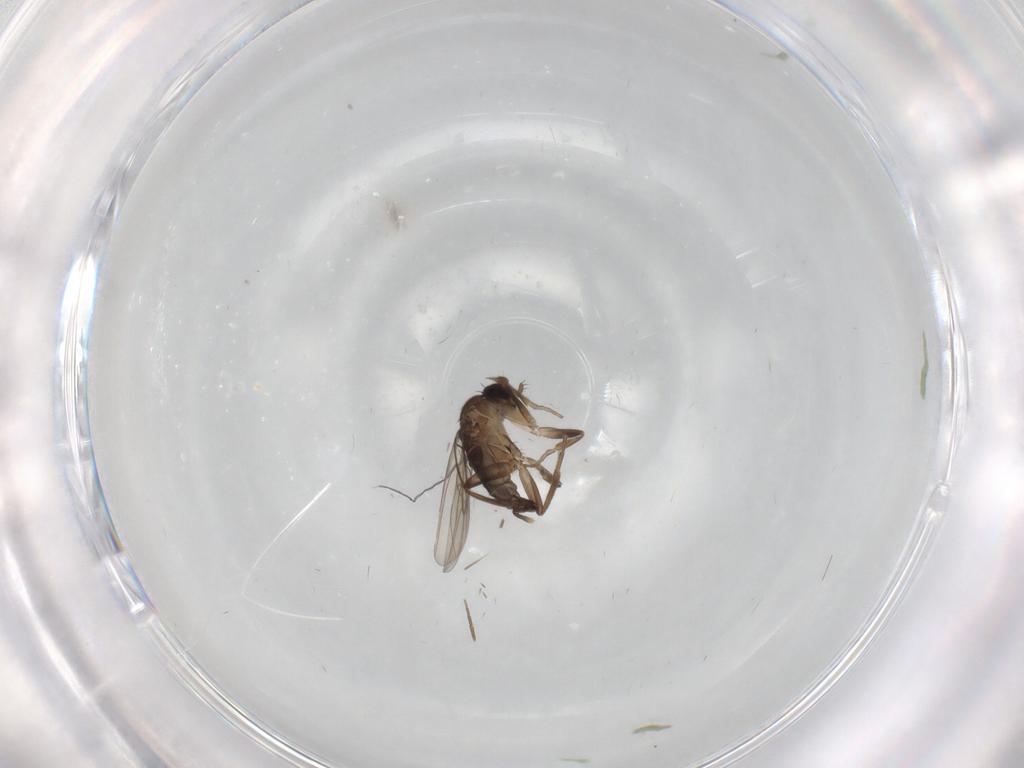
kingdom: Animalia
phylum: Arthropoda
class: Insecta
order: Diptera
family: Phoridae
